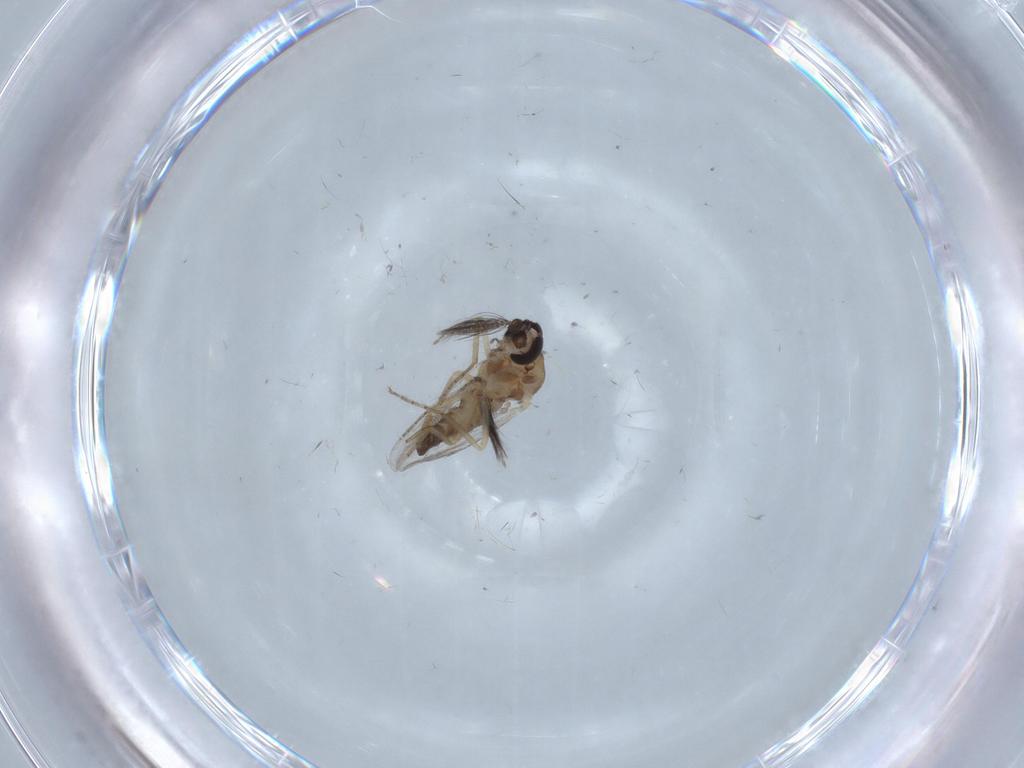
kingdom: Animalia
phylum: Arthropoda
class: Insecta
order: Diptera
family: Ceratopogonidae
